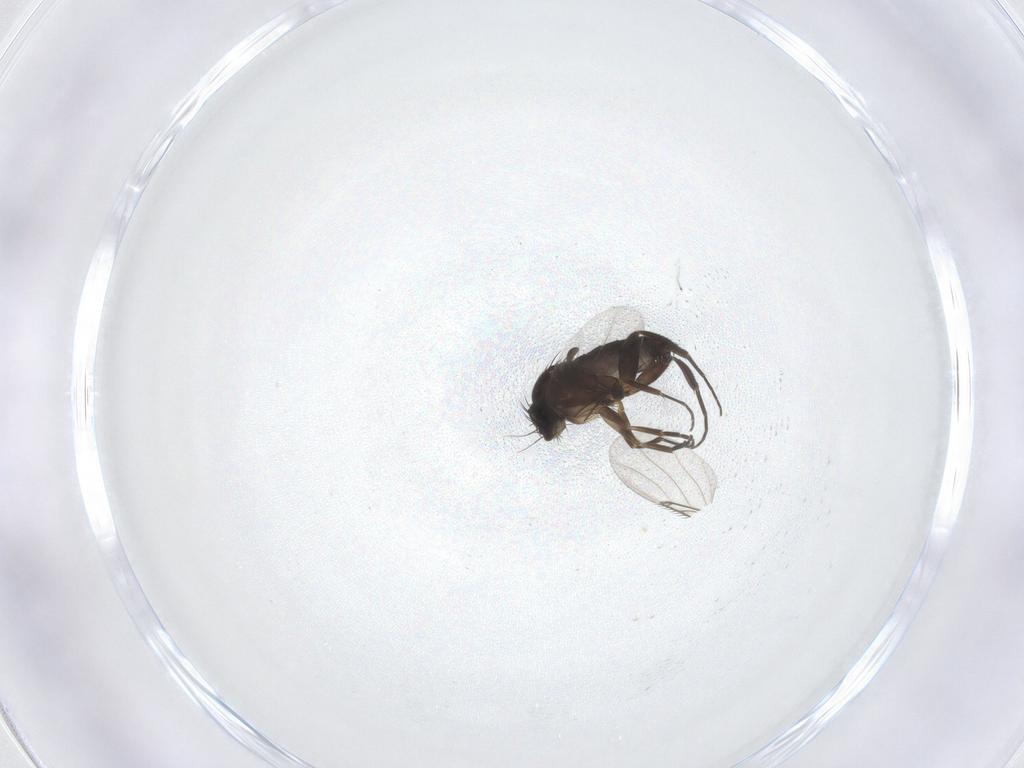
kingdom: Animalia
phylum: Arthropoda
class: Insecta
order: Diptera
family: Phoridae
